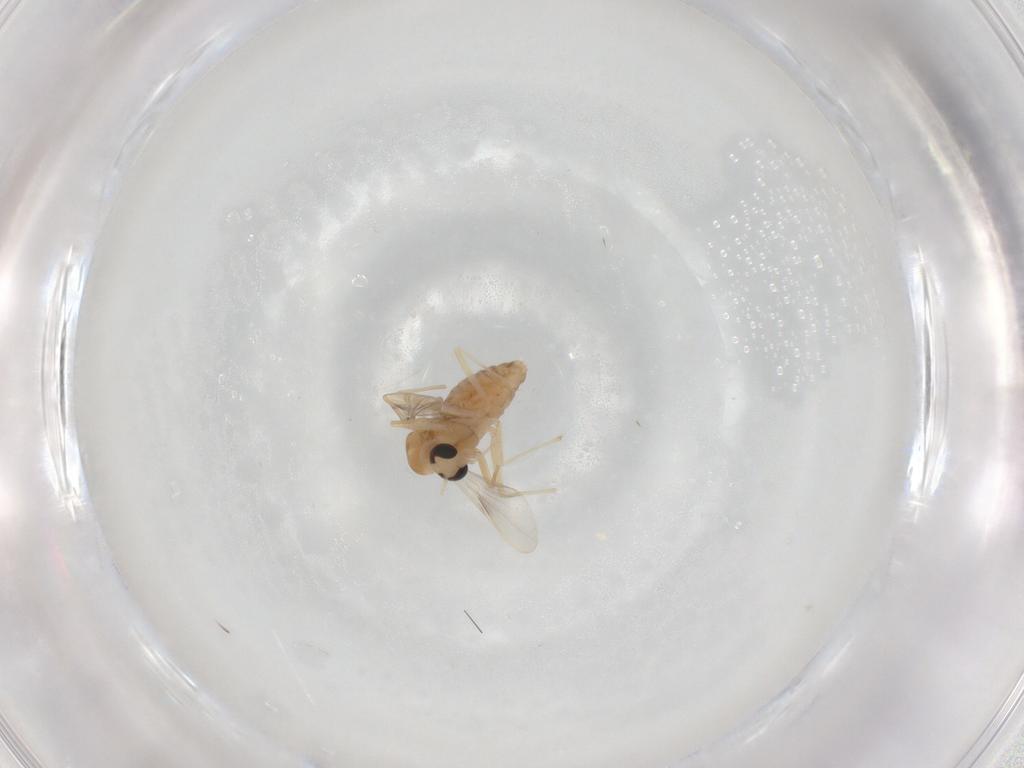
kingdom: Animalia
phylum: Arthropoda
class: Insecta
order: Diptera
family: Chironomidae
